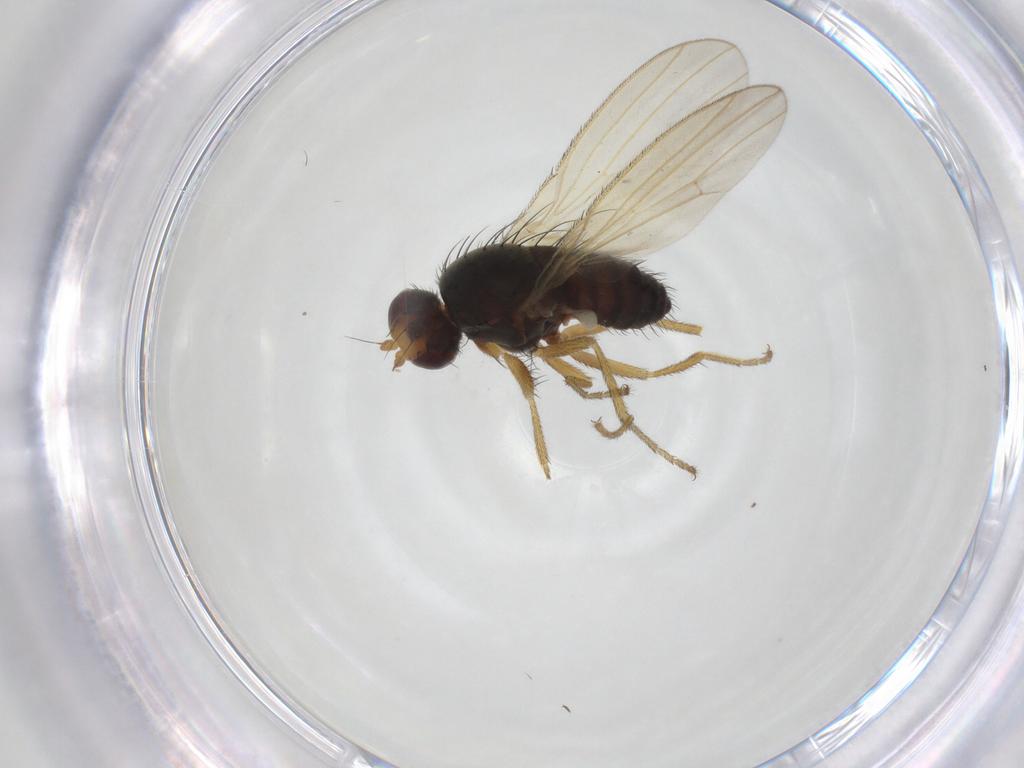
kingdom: Animalia
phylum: Arthropoda
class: Insecta
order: Diptera
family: Heleomyzidae
